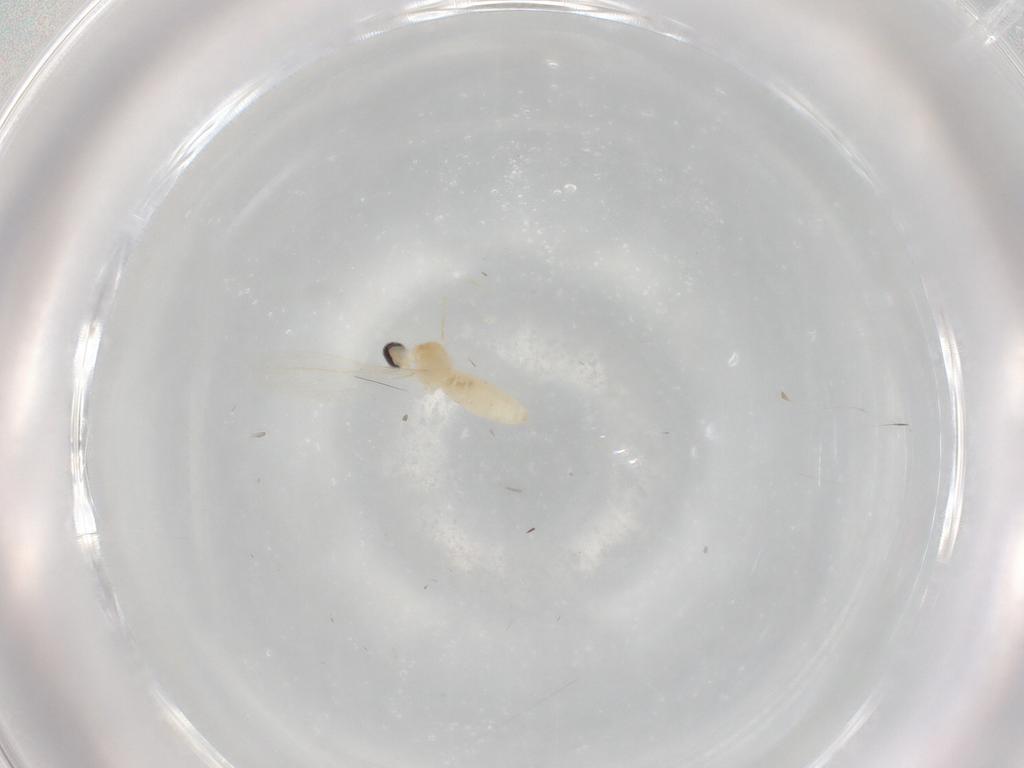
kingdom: Animalia
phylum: Arthropoda
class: Insecta
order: Diptera
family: Cecidomyiidae
